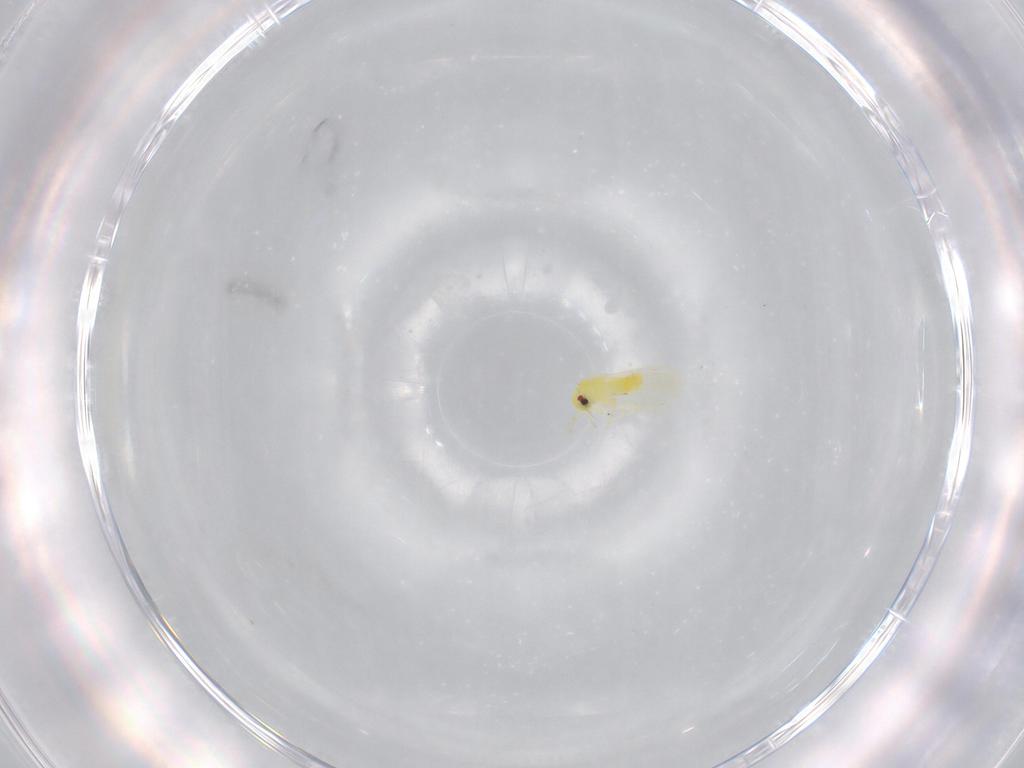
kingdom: Animalia
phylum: Arthropoda
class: Insecta
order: Hemiptera
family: Aleyrodidae
